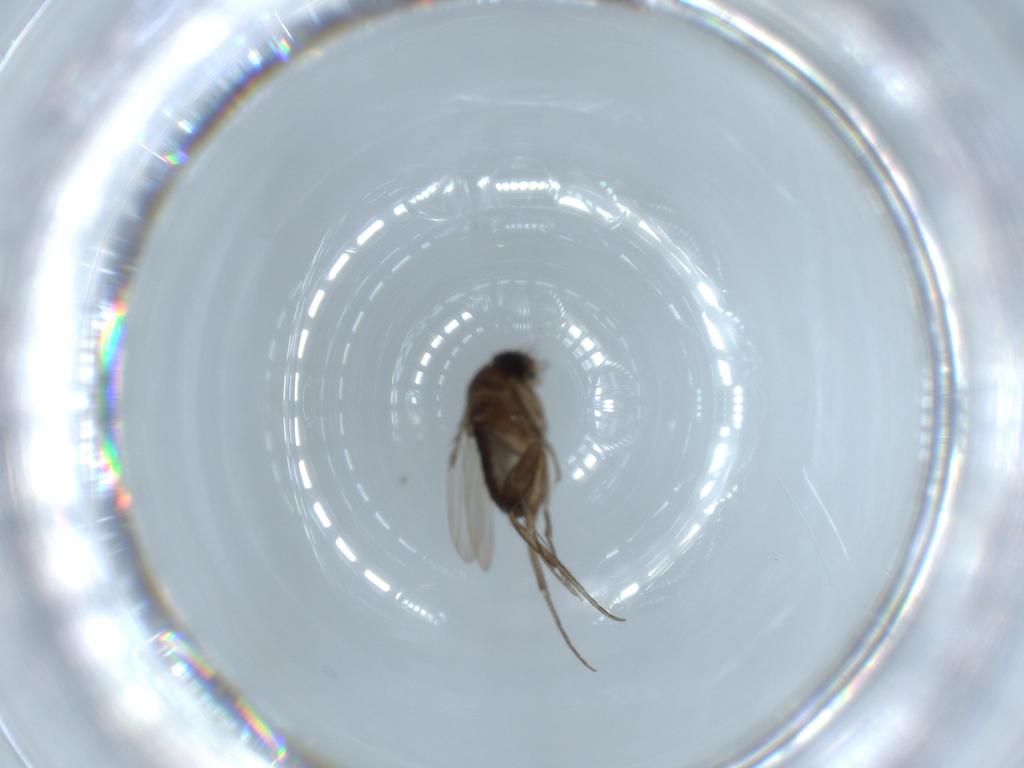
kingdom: Animalia
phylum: Arthropoda
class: Insecta
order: Diptera
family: Phoridae
